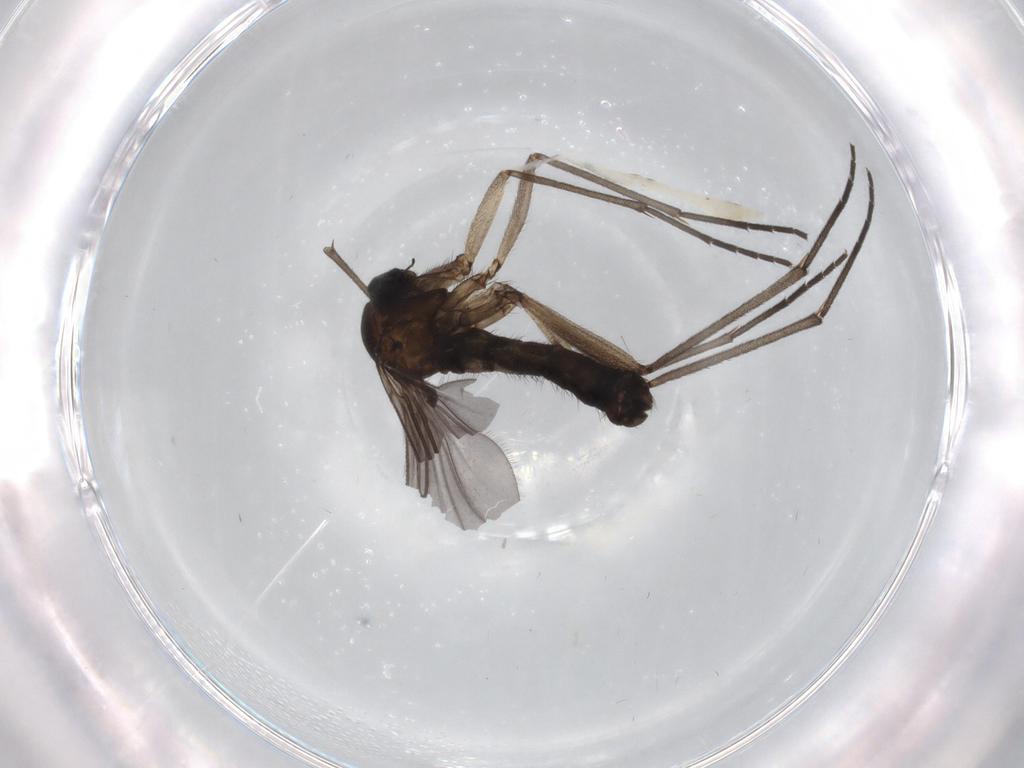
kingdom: Animalia
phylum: Arthropoda
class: Insecta
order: Diptera
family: Sciaridae
